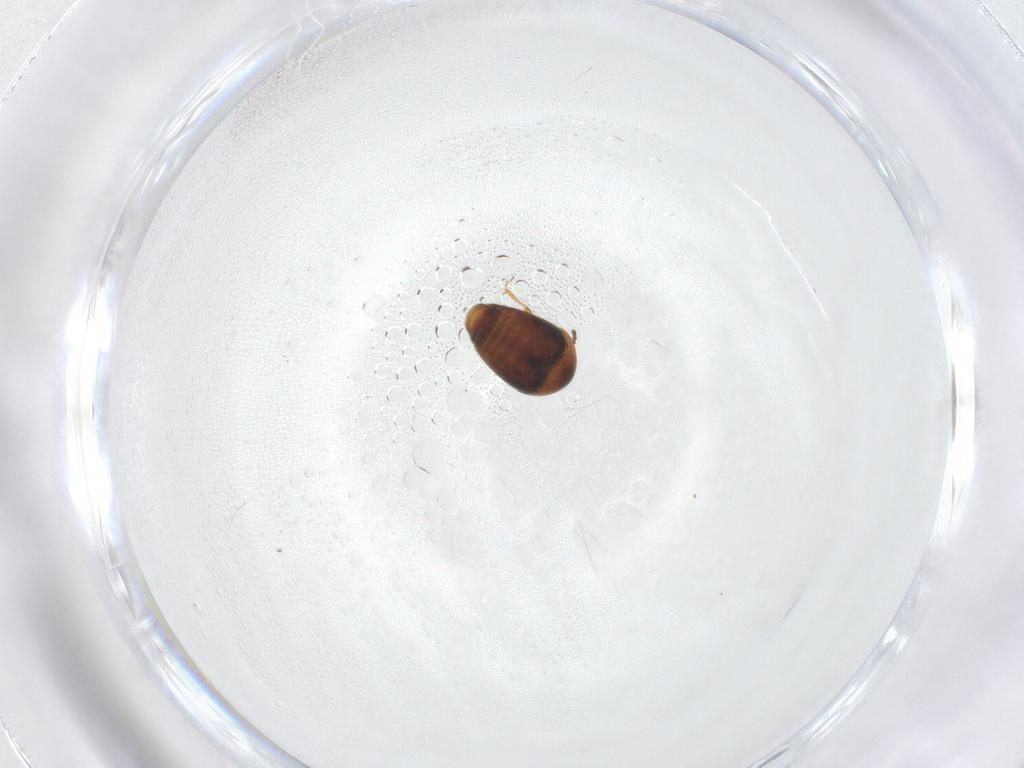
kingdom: Animalia
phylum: Arthropoda
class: Insecta
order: Coleoptera
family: Corylophidae
